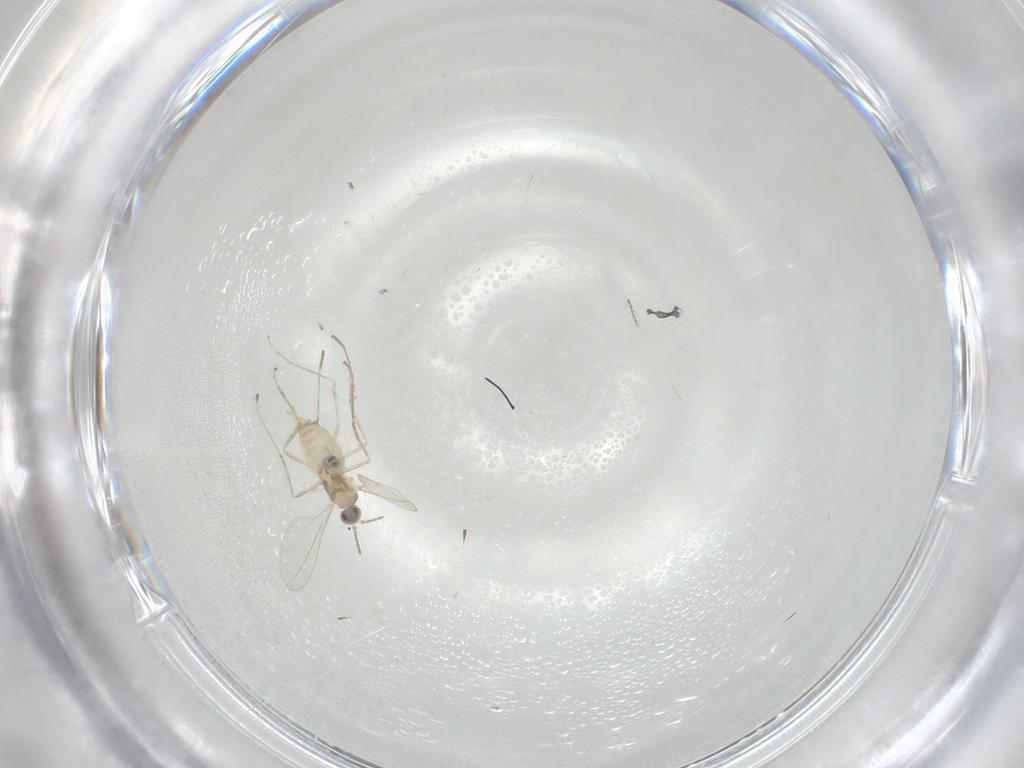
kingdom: Animalia
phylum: Arthropoda
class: Insecta
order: Diptera
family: Cecidomyiidae
